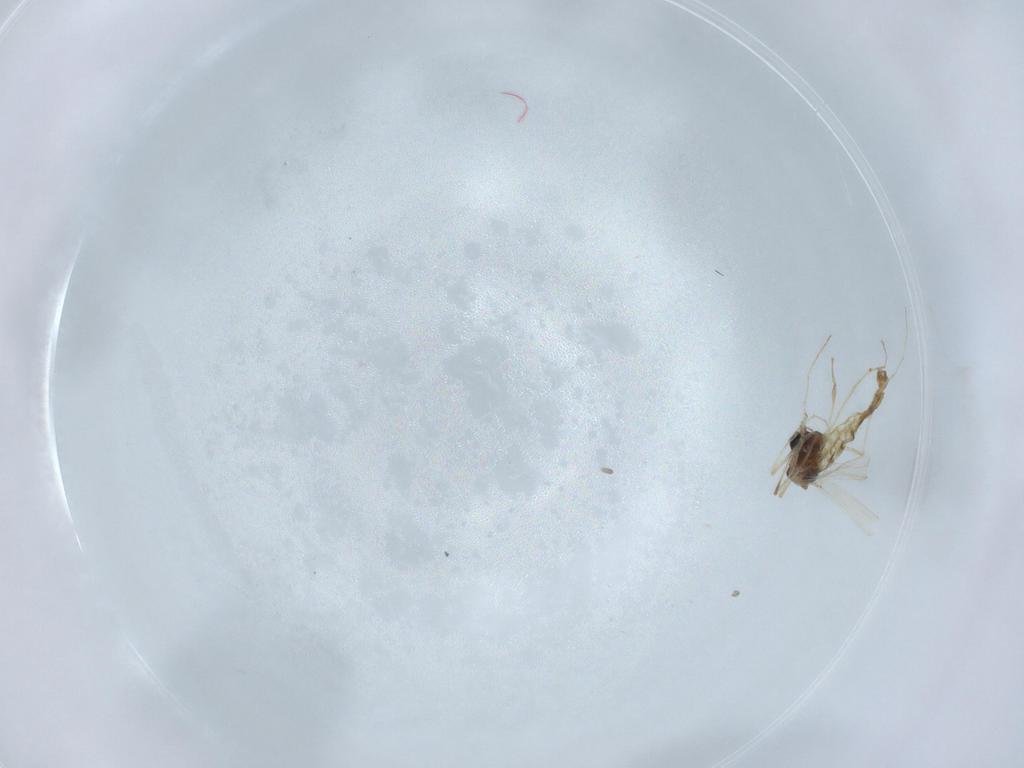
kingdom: Animalia
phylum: Arthropoda
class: Insecta
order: Diptera
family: Chironomidae
